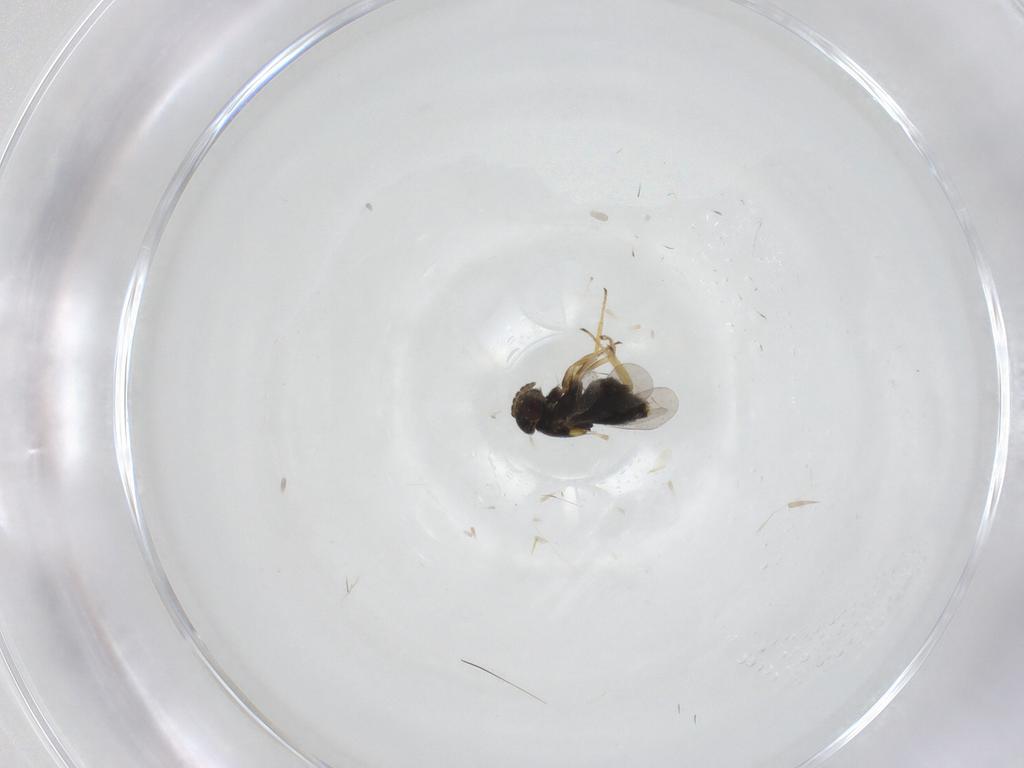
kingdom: Animalia
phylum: Arthropoda
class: Insecta
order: Hymenoptera
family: Aphelinidae
